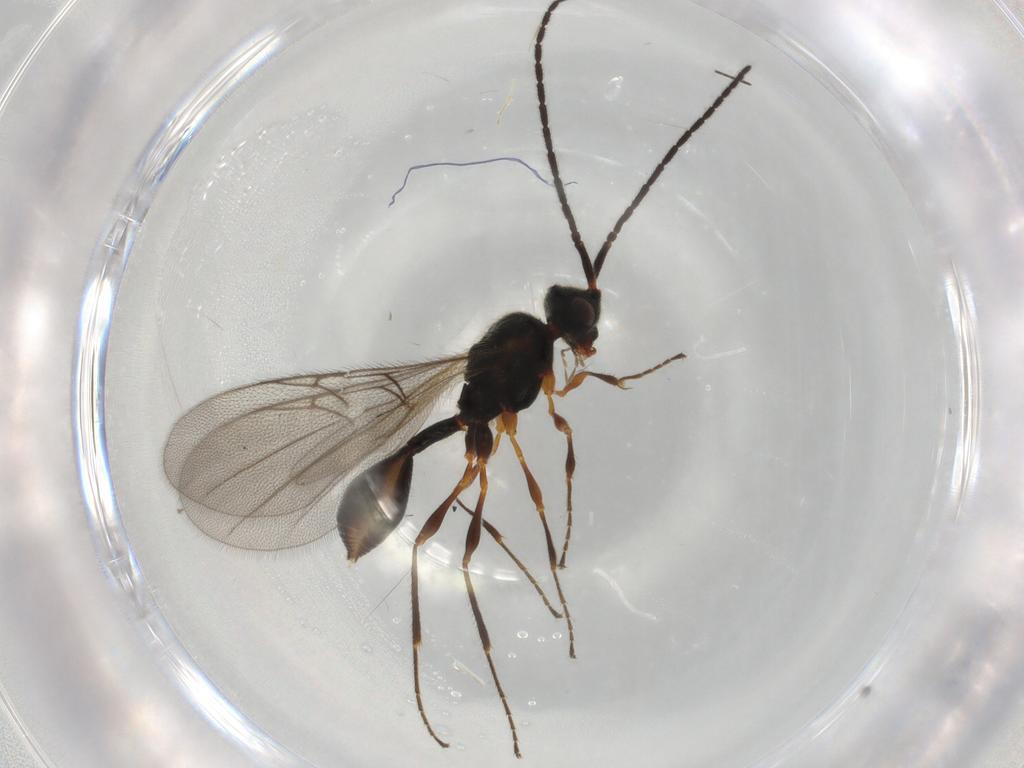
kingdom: Animalia
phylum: Arthropoda
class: Insecta
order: Hymenoptera
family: Diapriidae
